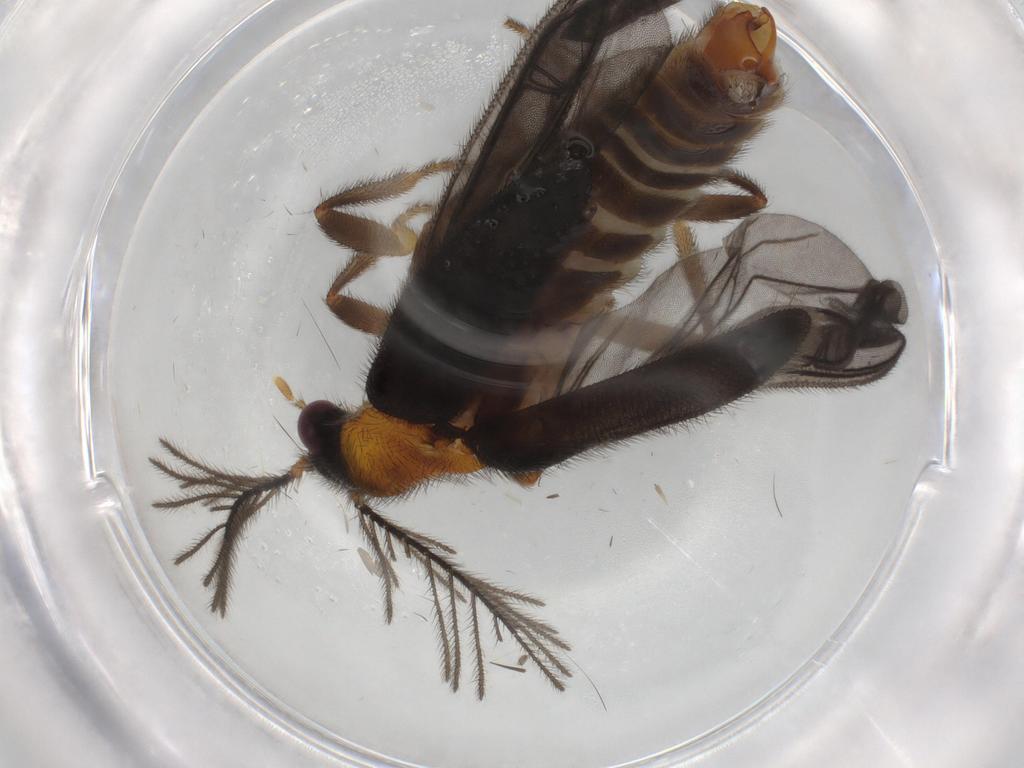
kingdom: Animalia
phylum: Arthropoda
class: Insecta
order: Coleoptera
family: Phengodidae
